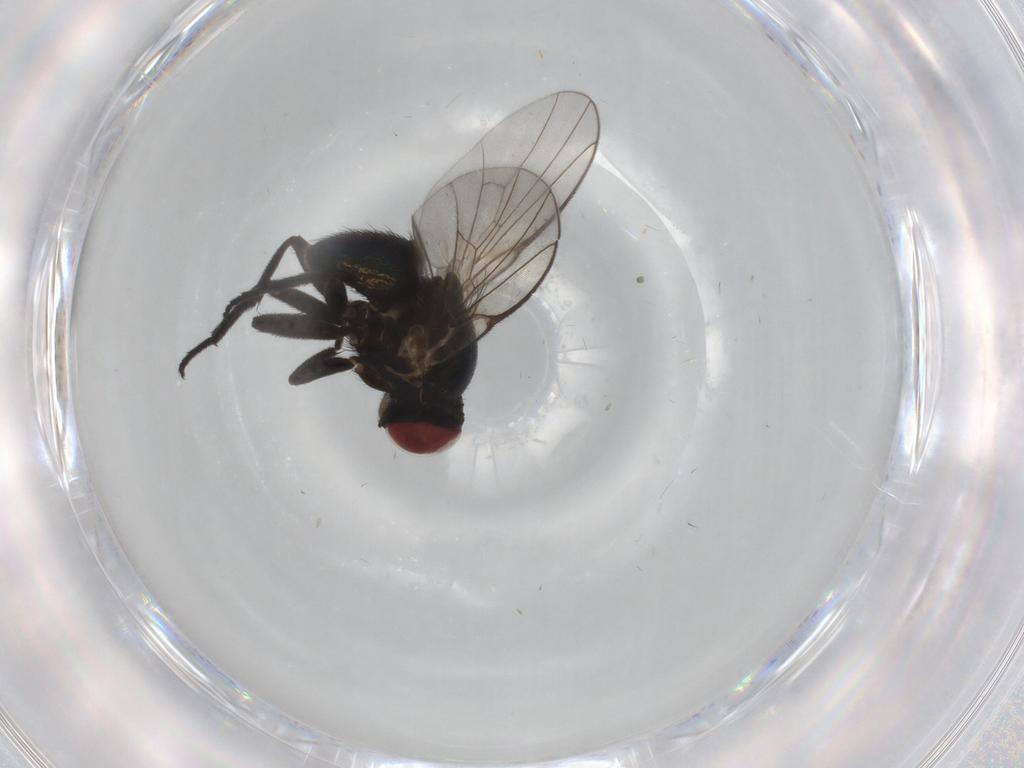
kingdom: Animalia
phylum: Arthropoda
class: Insecta
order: Diptera
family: Agromyzidae
